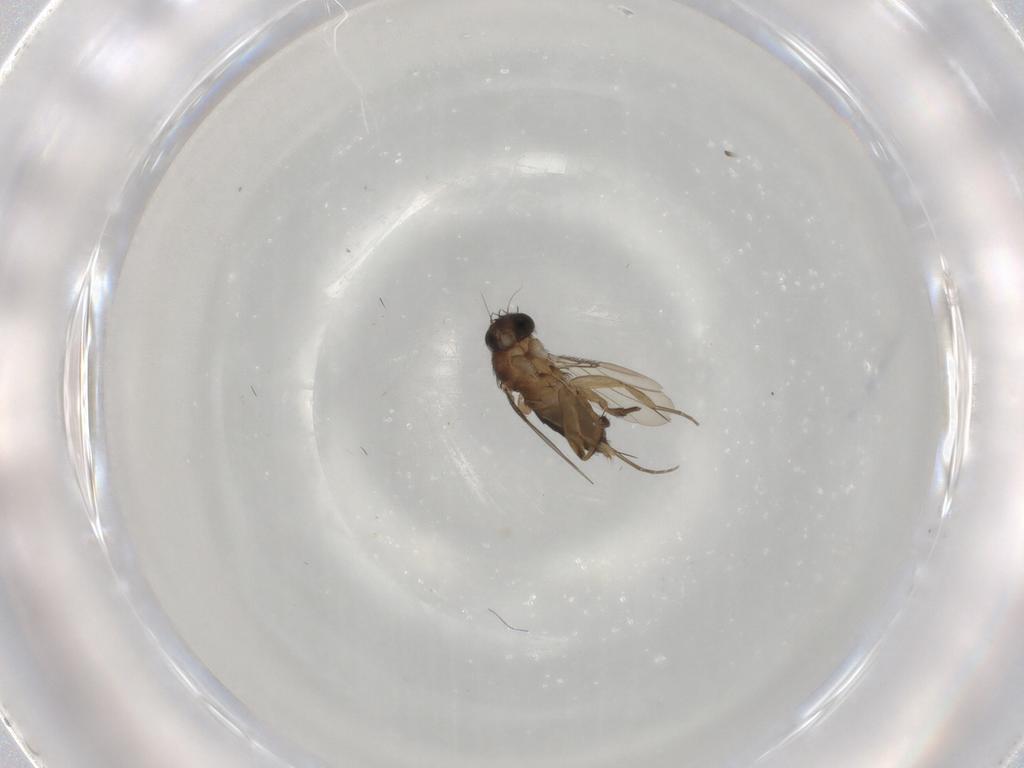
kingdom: Animalia
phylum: Arthropoda
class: Insecta
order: Diptera
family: Phoridae
